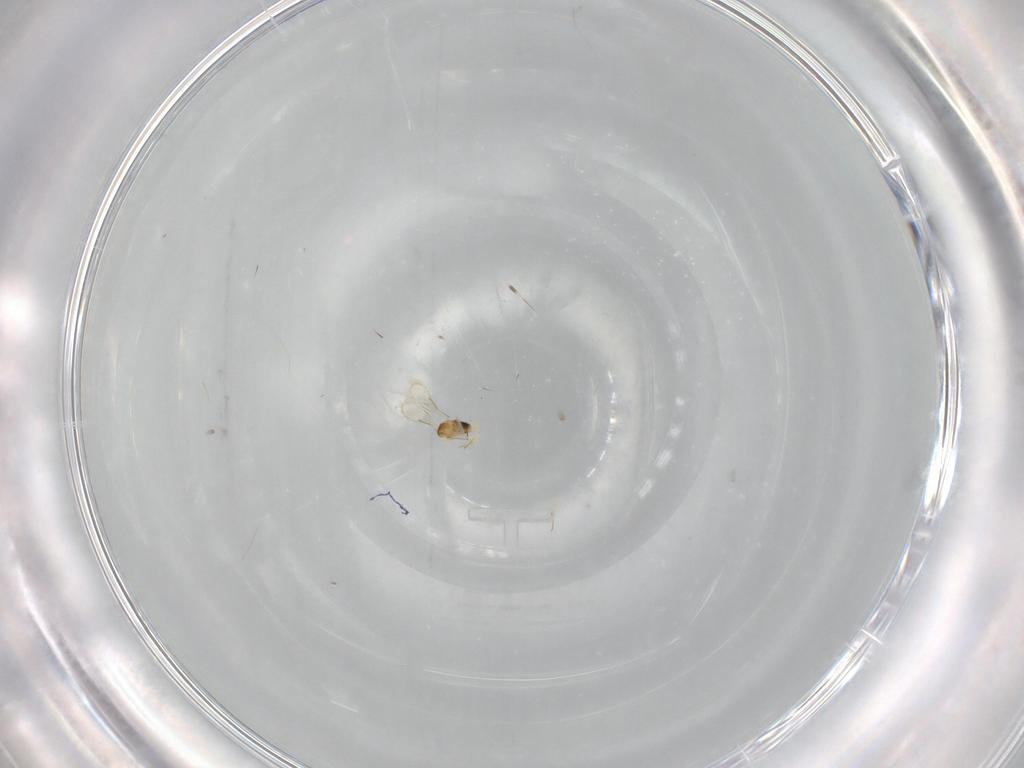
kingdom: Animalia
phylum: Arthropoda
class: Insecta
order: Hymenoptera
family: Aphelinidae
